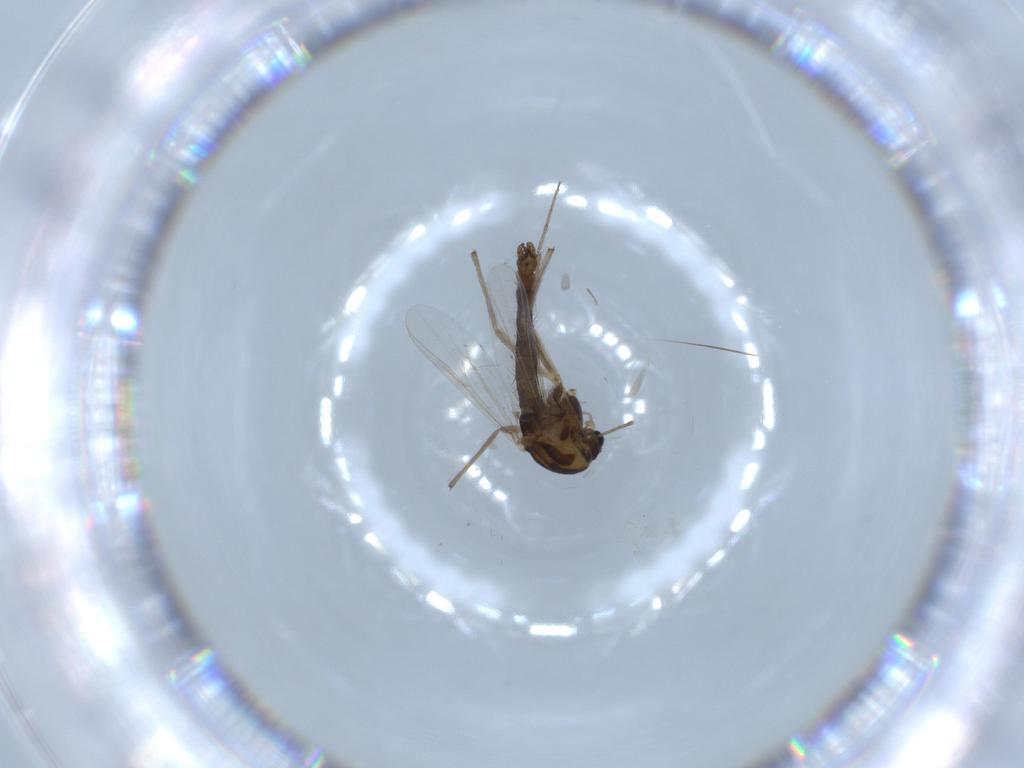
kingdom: Animalia
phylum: Arthropoda
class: Insecta
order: Diptera
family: Chironomidae
